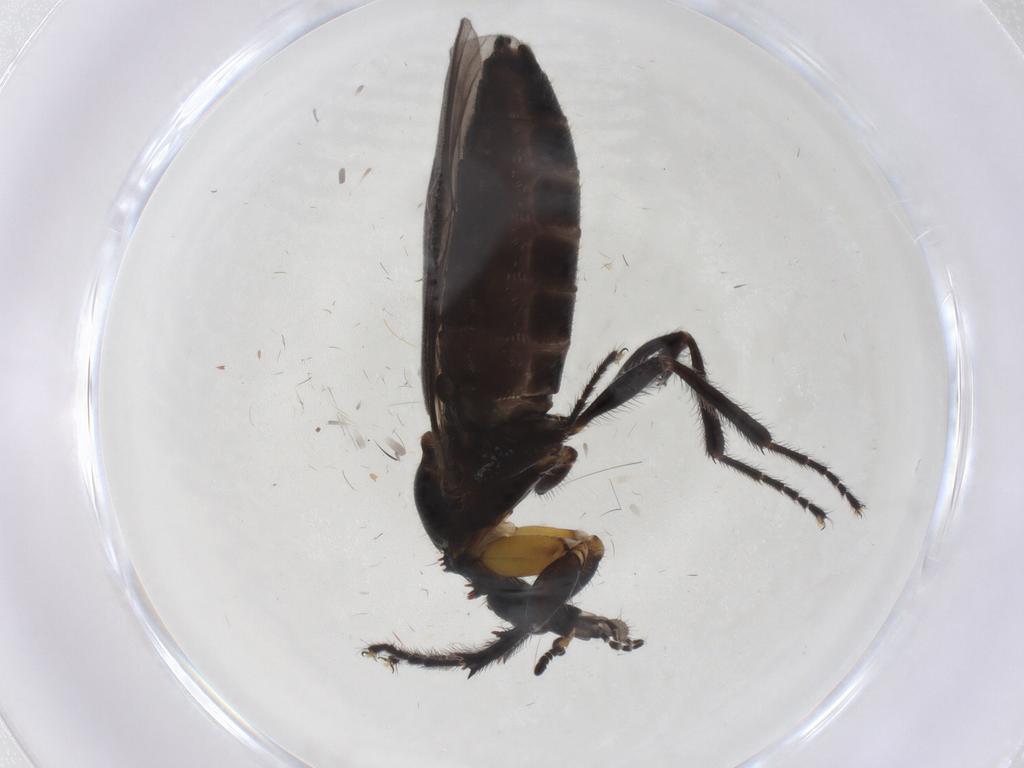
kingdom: Animalia
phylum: Arthropoda
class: Insecta
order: Diptera
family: Bibionidae
